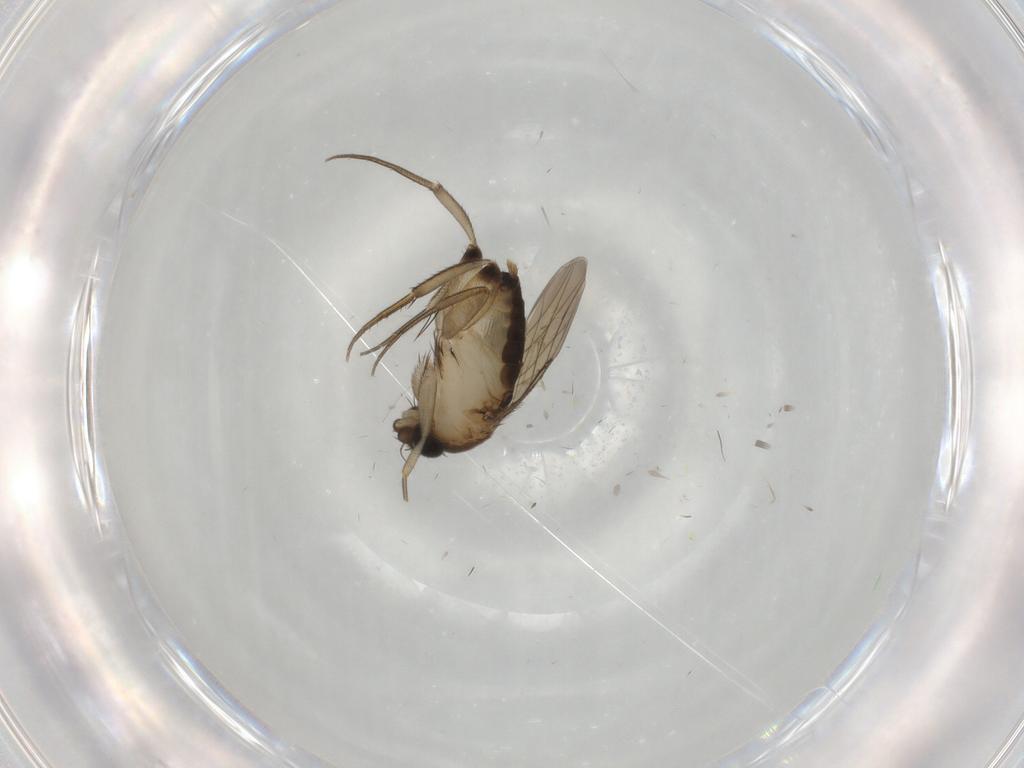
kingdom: Animalia
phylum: Arthropoda
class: Insecta
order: Diptera
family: Phoridae
